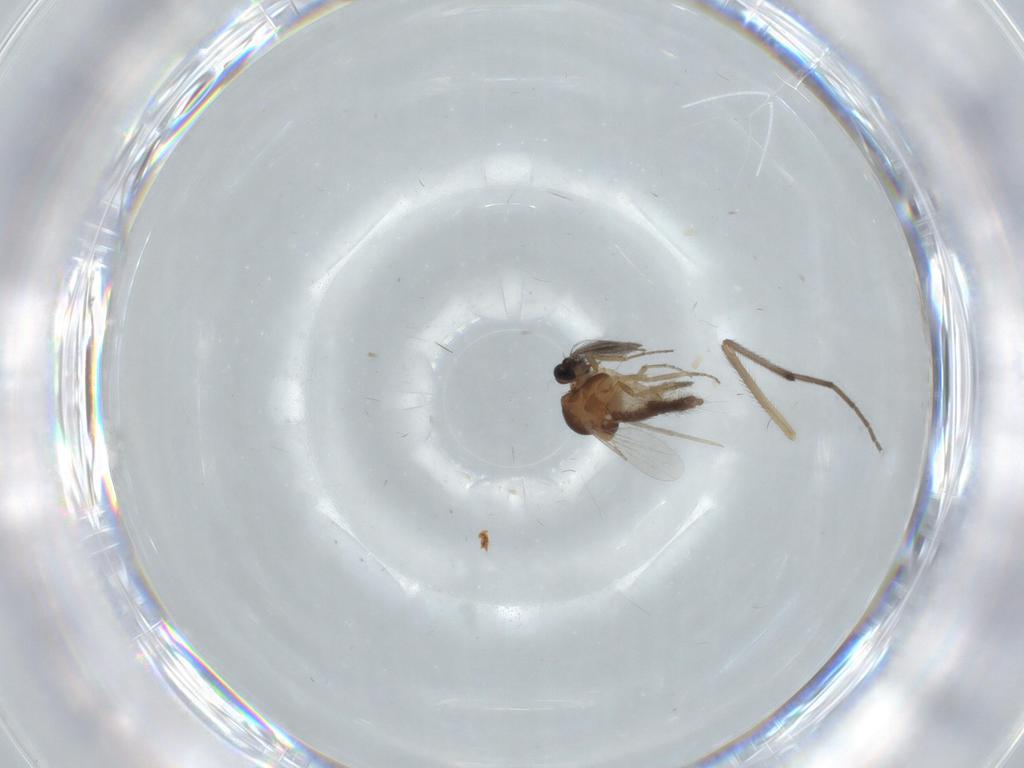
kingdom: Animalia
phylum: Arthropoda
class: Insecta
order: Diptera
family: Ceratopogonidae
